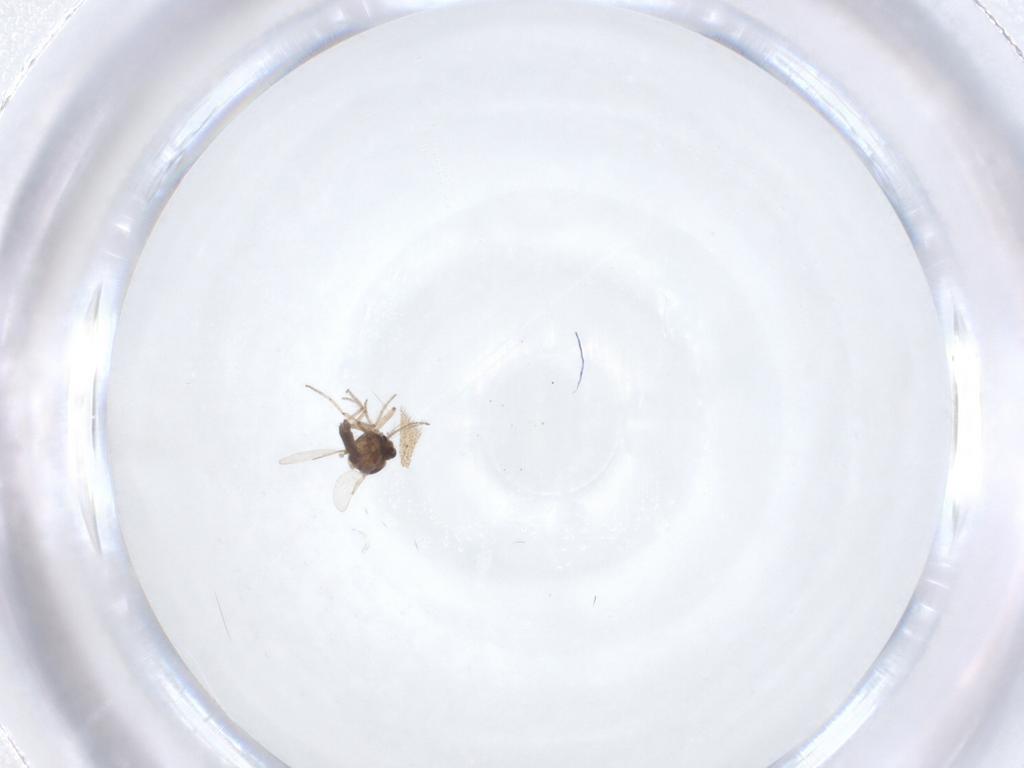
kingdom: Animalia
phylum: Arthropoda
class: Insecta
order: Diptera
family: Ceratopogonidae
